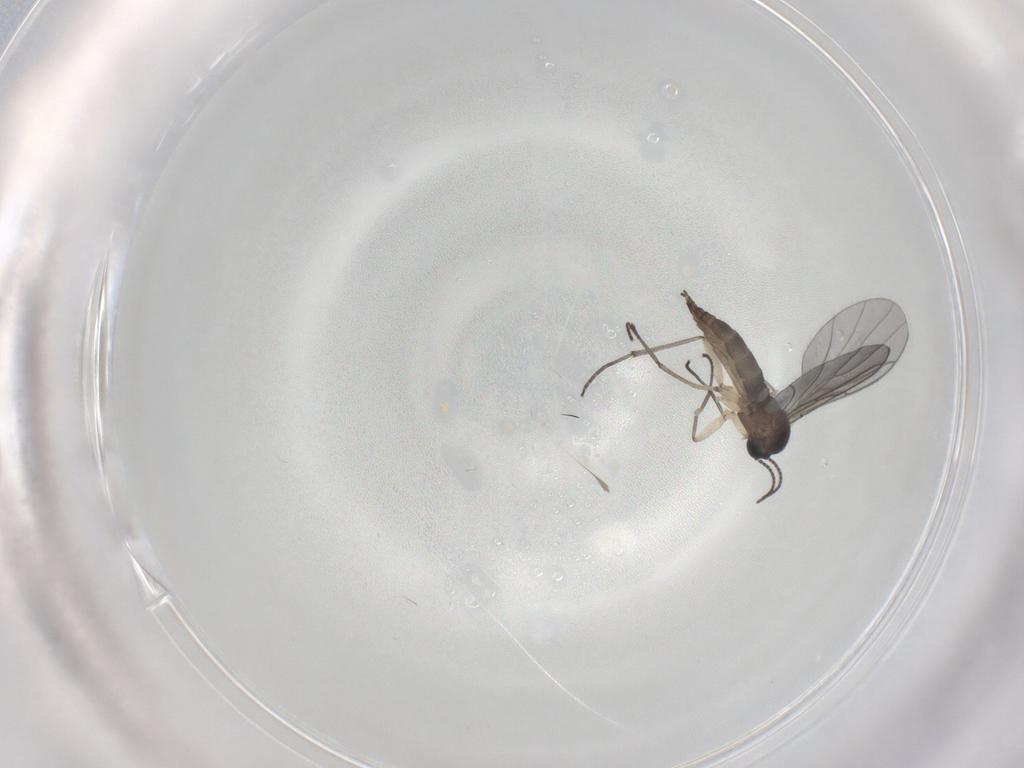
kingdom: Animalia
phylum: Arthropoda
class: Insecta
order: Diptera
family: Sciaridae
